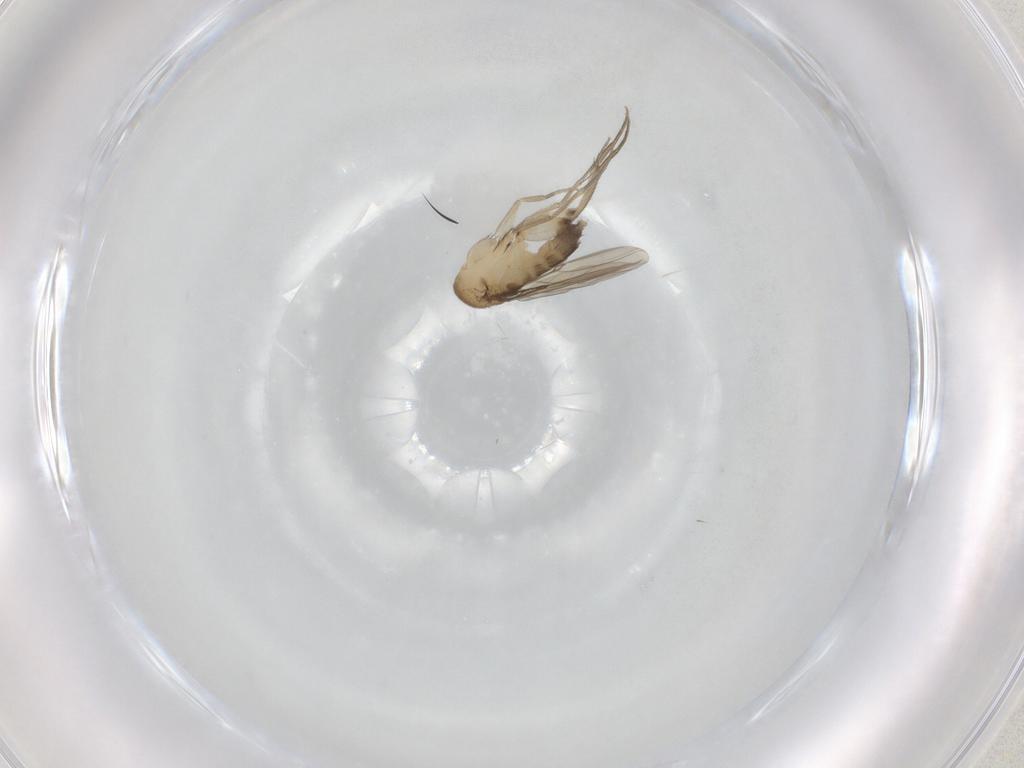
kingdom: Animalia
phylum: Arthropoda
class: Insecta
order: Diptera
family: Phoridae
